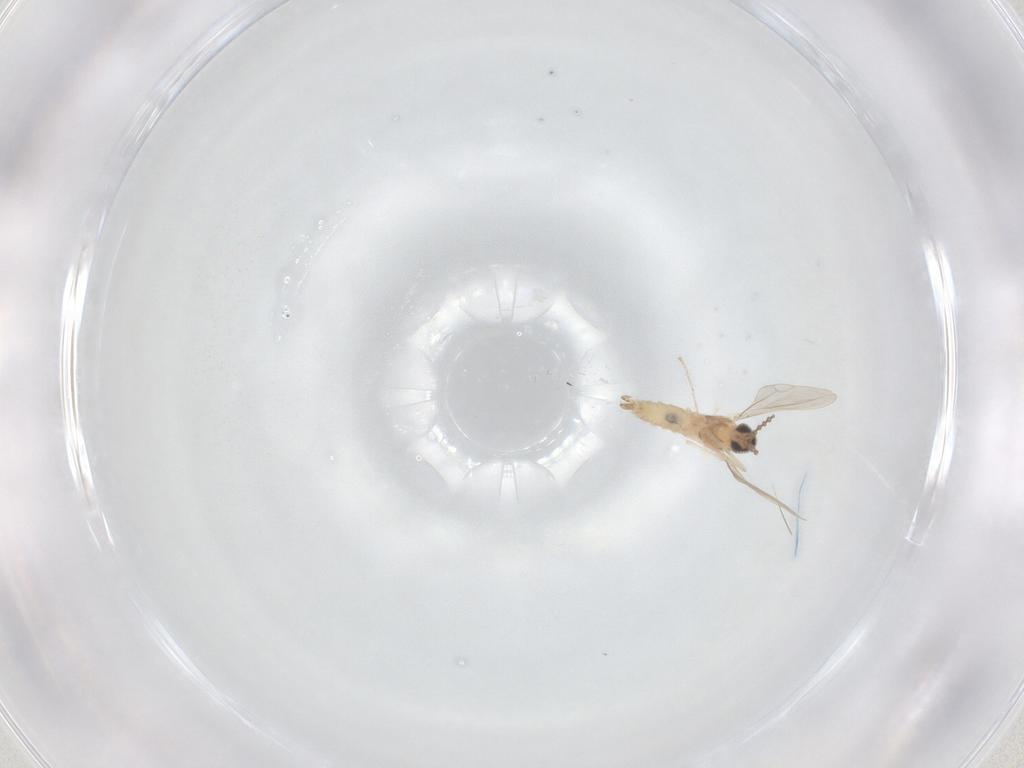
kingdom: Animalia
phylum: Arthropoda
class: Insecta
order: Diptera
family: Cecidomyiidae
